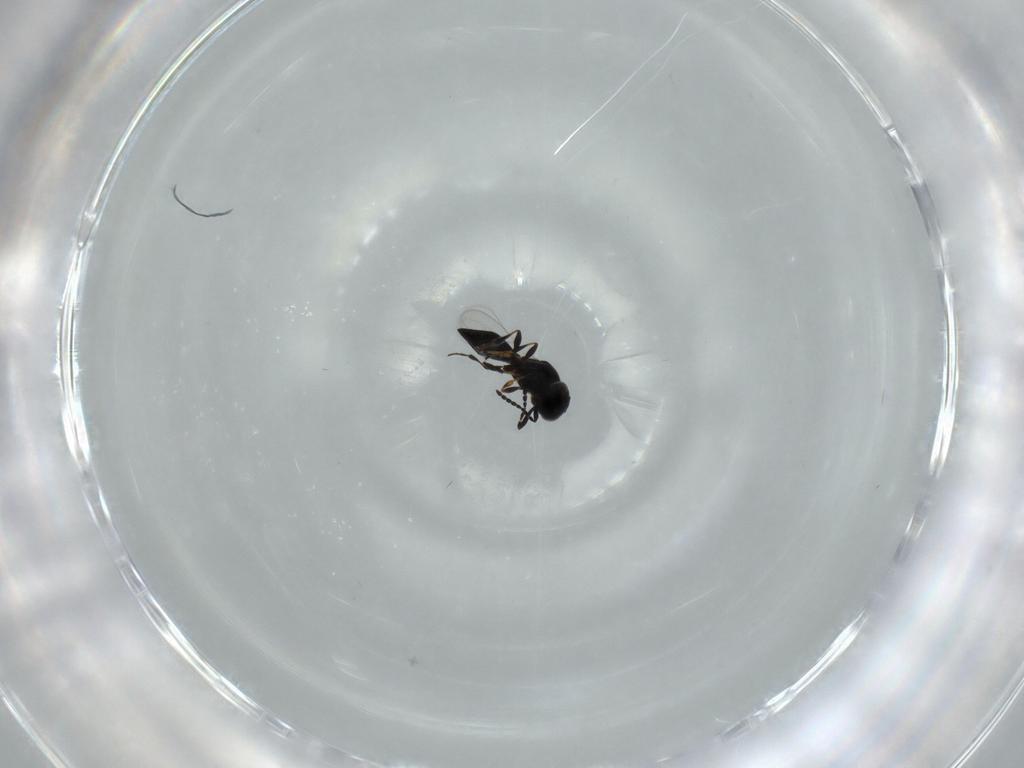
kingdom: Animalia
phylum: Arthropoda
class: Insecta
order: Hymenoptera
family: Platygastridae
